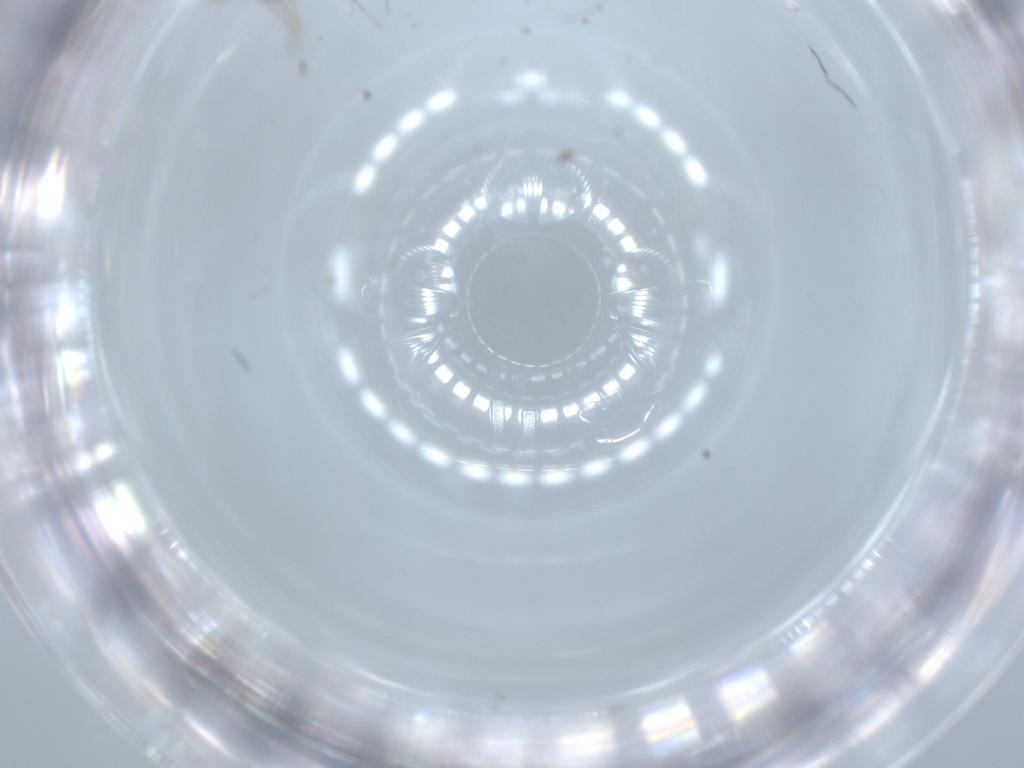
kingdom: Animalia
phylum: Arthropoda
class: Insecta
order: Diptera
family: Cecidomyiidae
